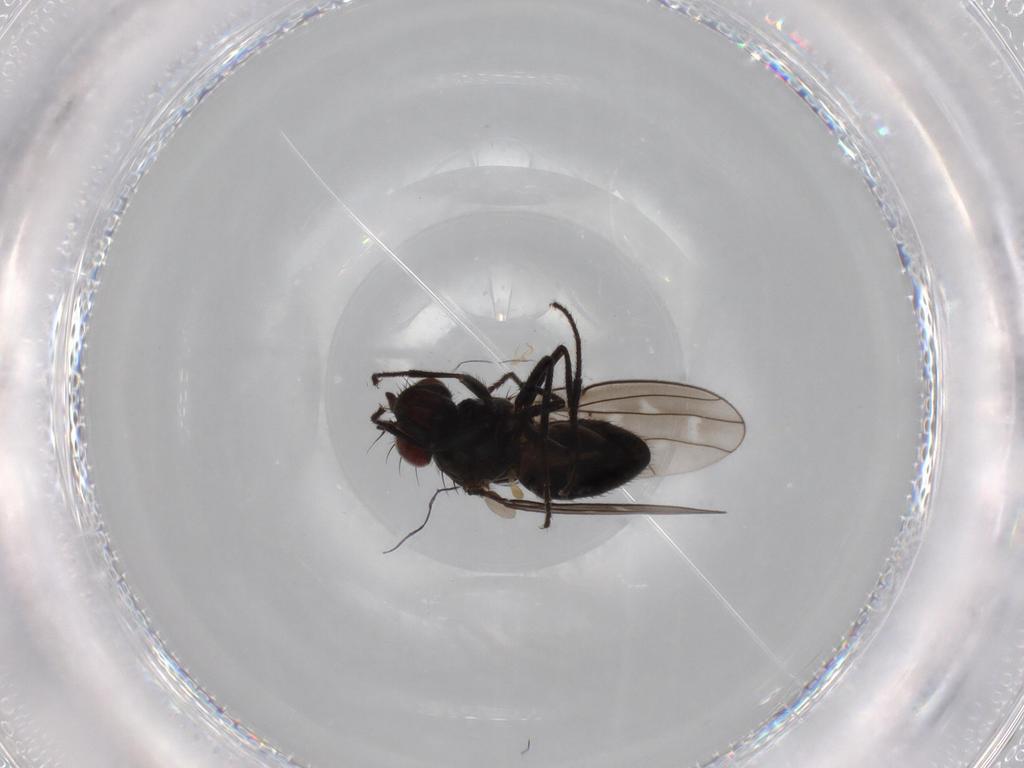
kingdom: Animalia
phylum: Arthropoda
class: Insecta
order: Diptera
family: Ephydridae
